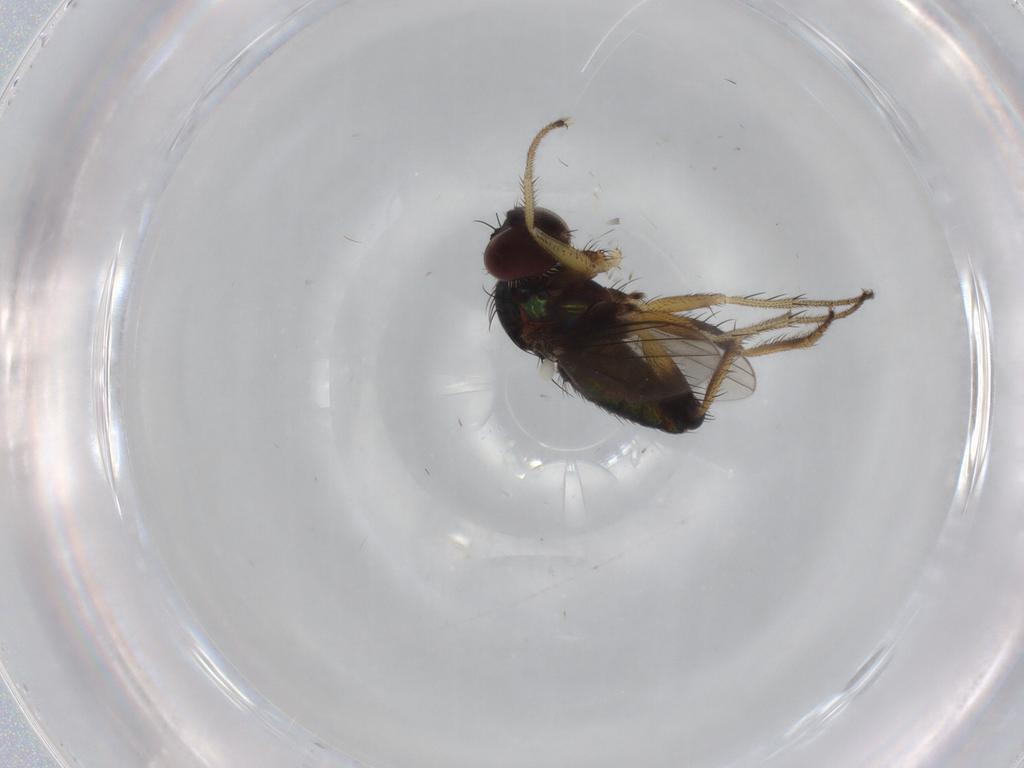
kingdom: Animalia
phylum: Arthropoda
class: Insecta
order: Diptera
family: Dolichopodidae
